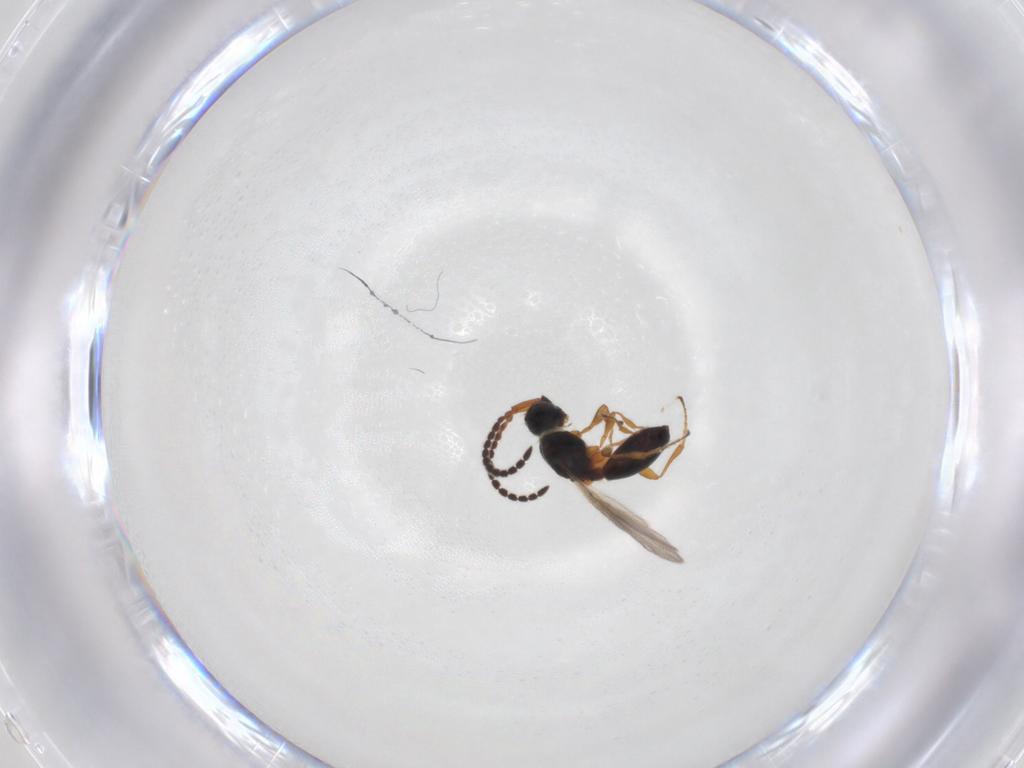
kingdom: Animalia
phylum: Arthropoda
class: Insecta
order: Hymenoptera
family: Diapriidae
